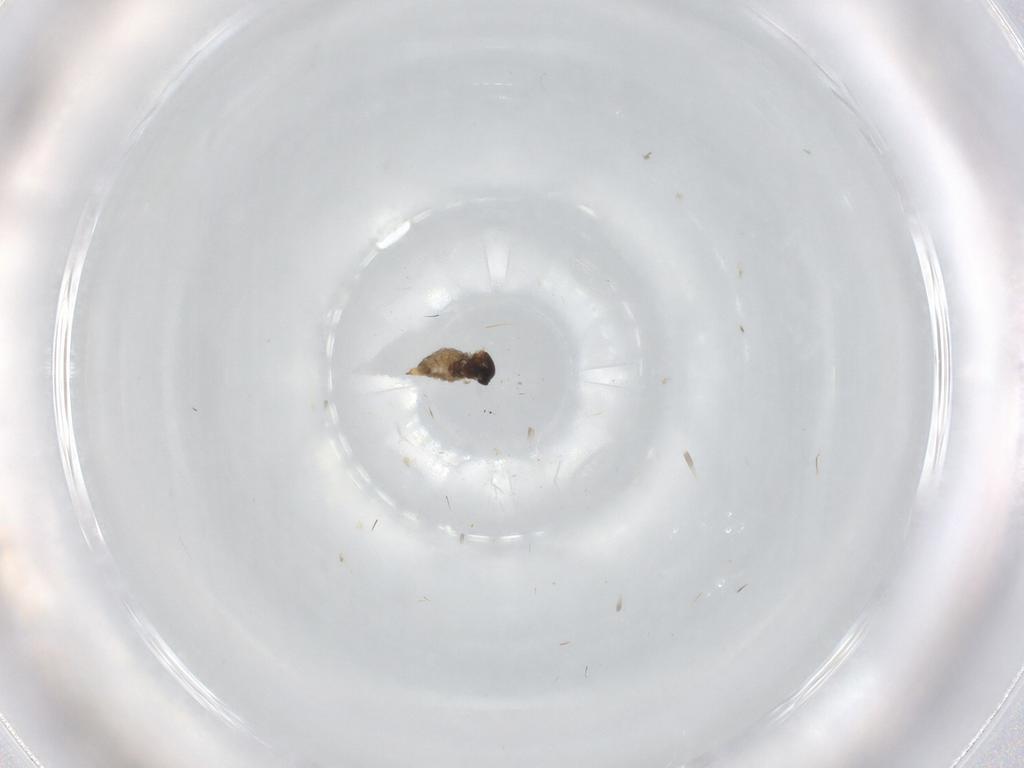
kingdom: Animalia
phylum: Arthropoda
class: Insecta
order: Diptera
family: Cecidomyiidae
